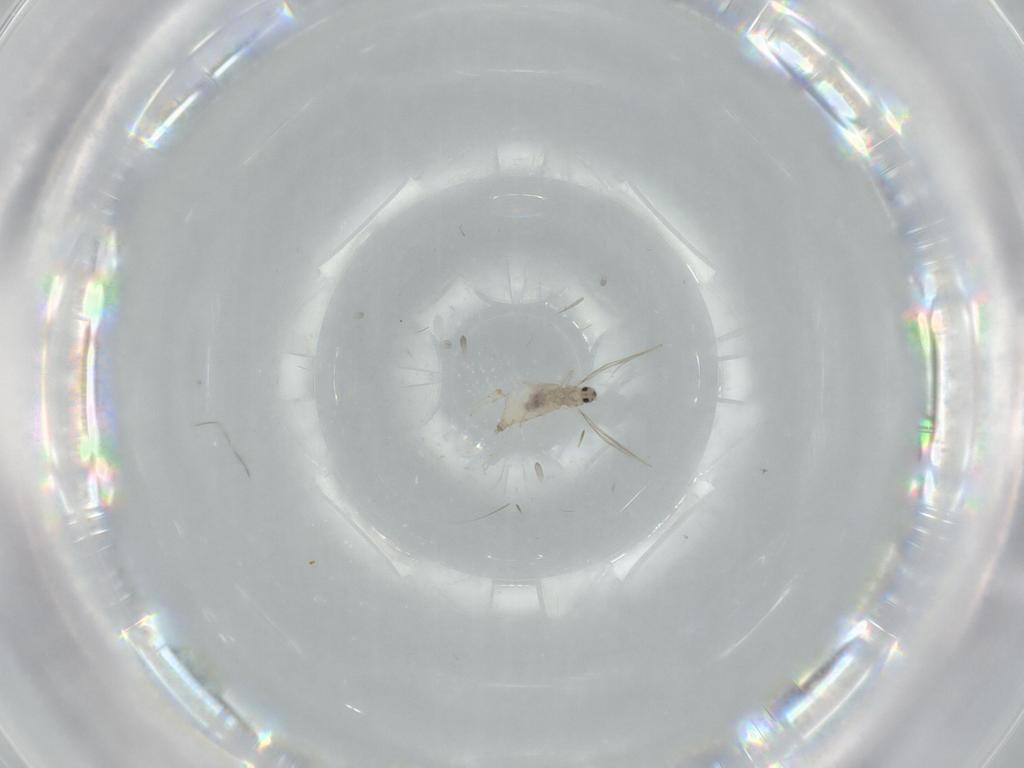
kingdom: Animalia
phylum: Arthropoda
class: Insecta
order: Diptera
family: Cecidomyiidae
